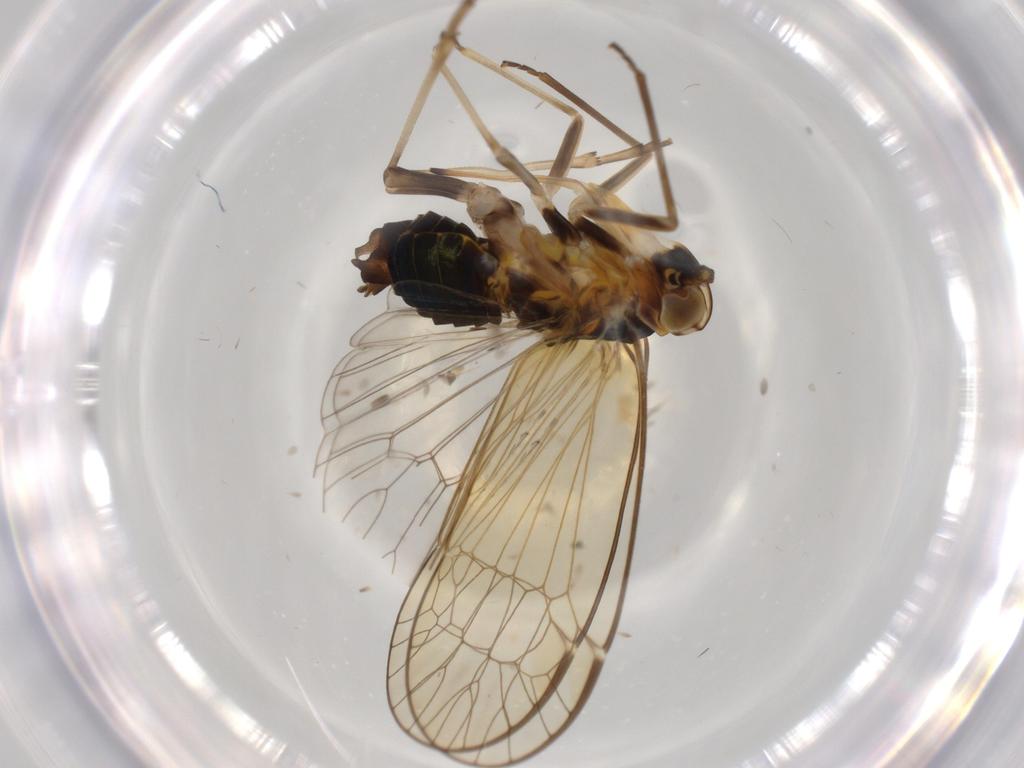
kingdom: Animalia
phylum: Arthropoda
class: Insecta
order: Hemiptera
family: Kinnaridae
